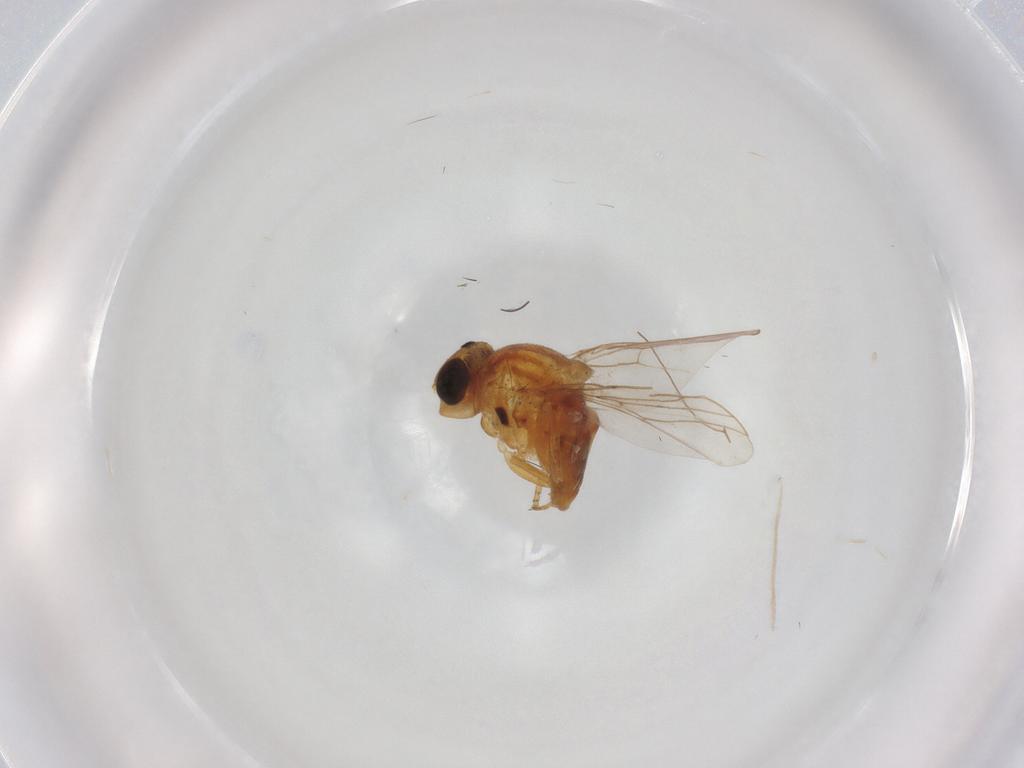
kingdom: Animalia
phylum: Arthropoda
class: Insecta
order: Diptera
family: Chloropidae
